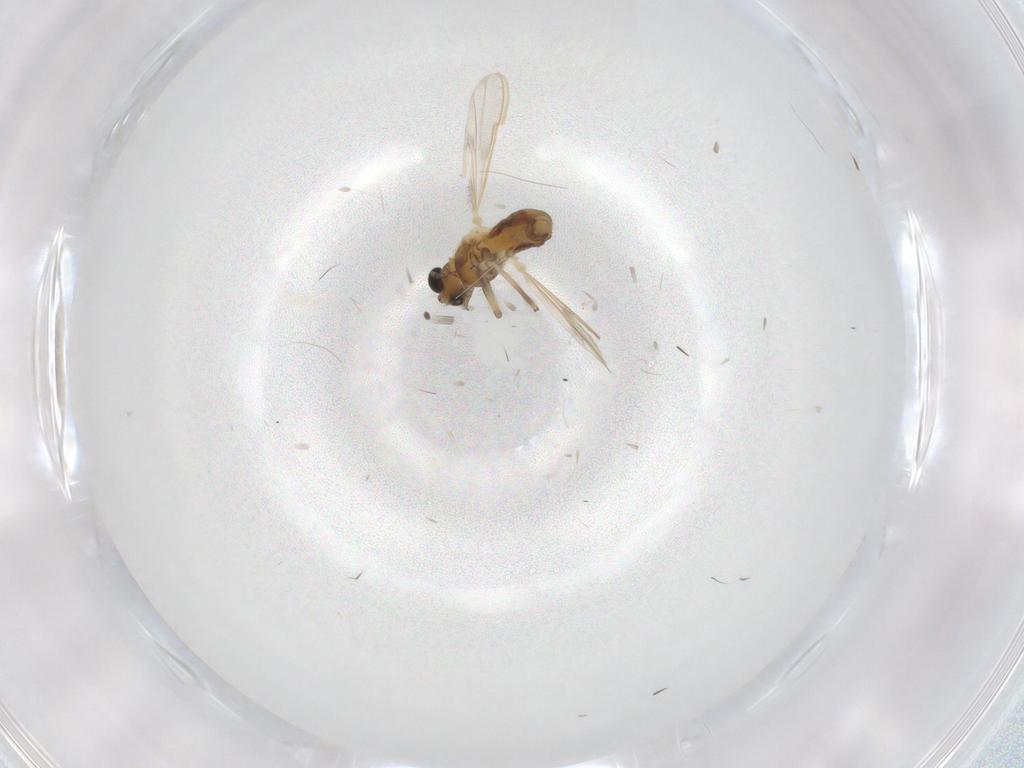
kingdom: Animalia
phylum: Arthropoda
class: Insecta
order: Diptera
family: Chironomidae
